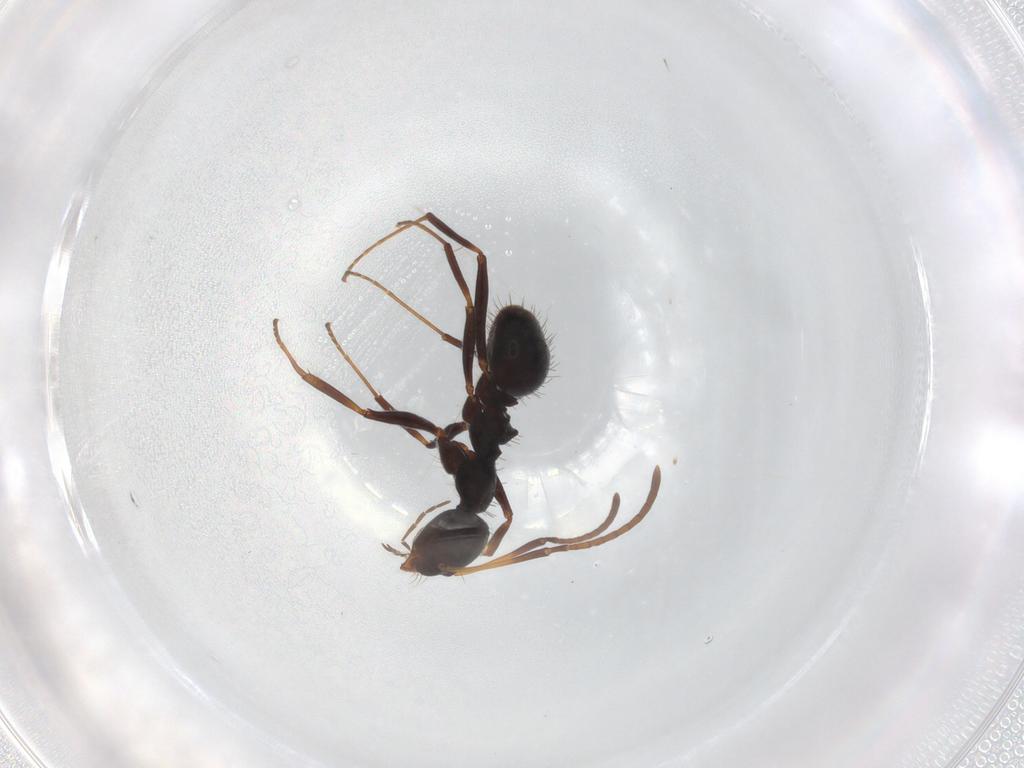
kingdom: Animalia
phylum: Arthropoda
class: Insecta
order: Hymenoptera
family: Formicidae
